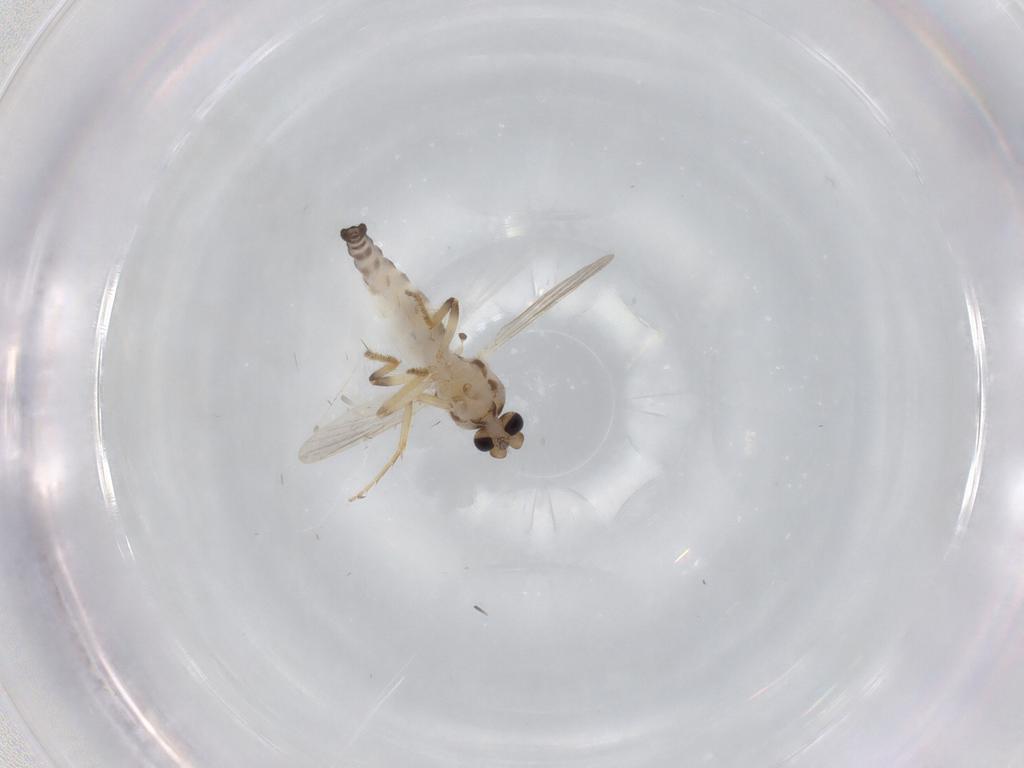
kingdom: Animalia
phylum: Arthropoda
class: Insecta
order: Diptera
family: Ceratopogonidae
